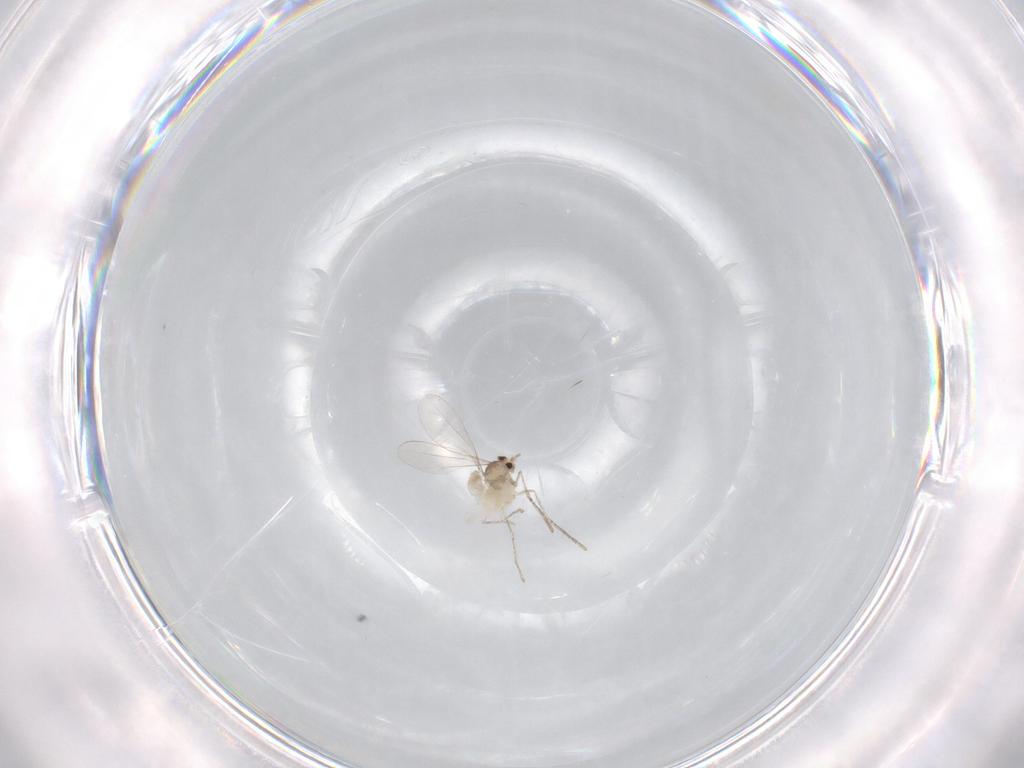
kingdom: Animalia
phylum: Arthropoda
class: Insecta
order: Diptera
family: Cecidomyiidae
